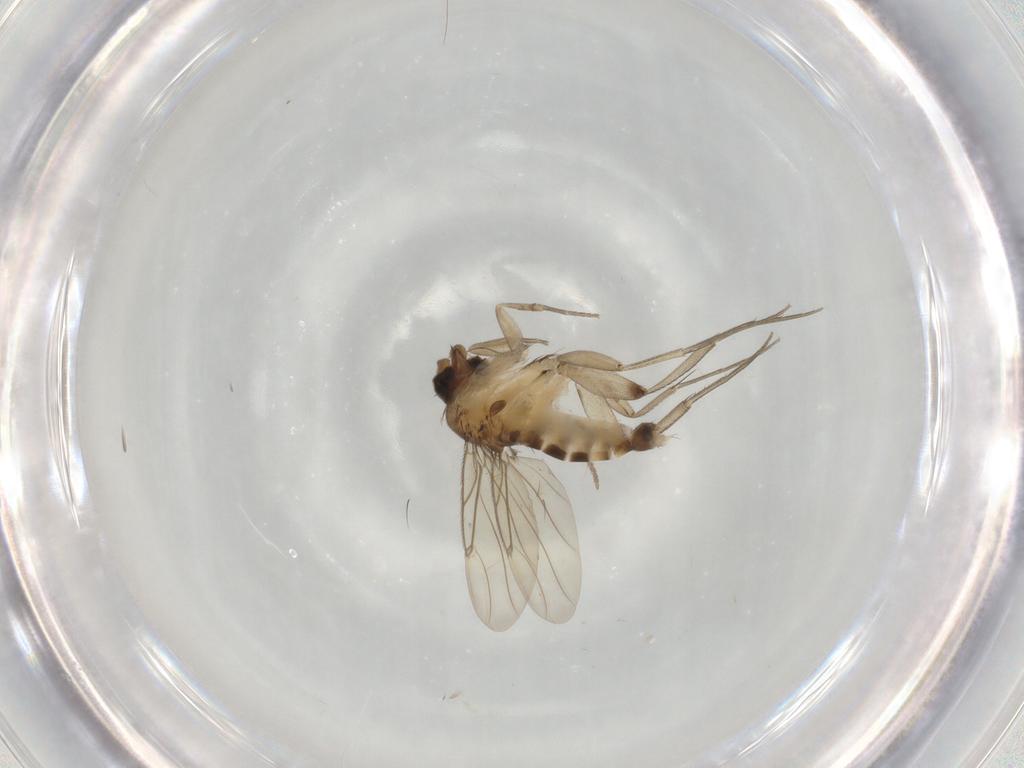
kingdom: Animalia
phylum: Arthropoda
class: Insecta
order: Diptera
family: Psychodidae
